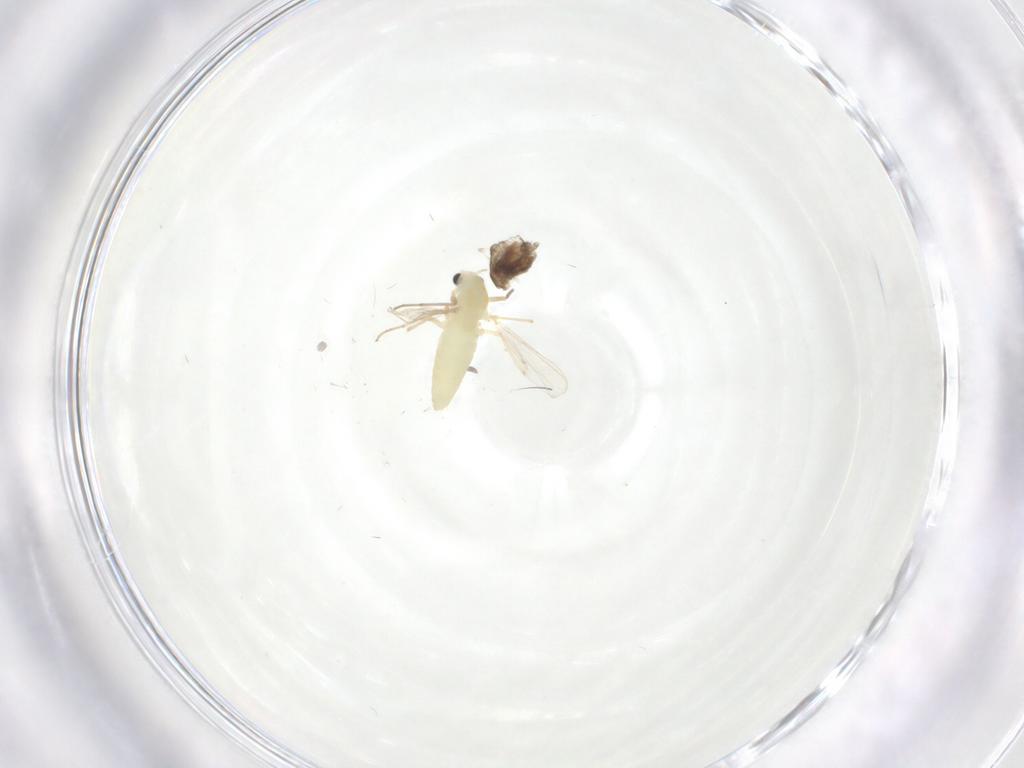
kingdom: Animalia
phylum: Arthropoda
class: Insecta
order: Diptera
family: Chironomidae
